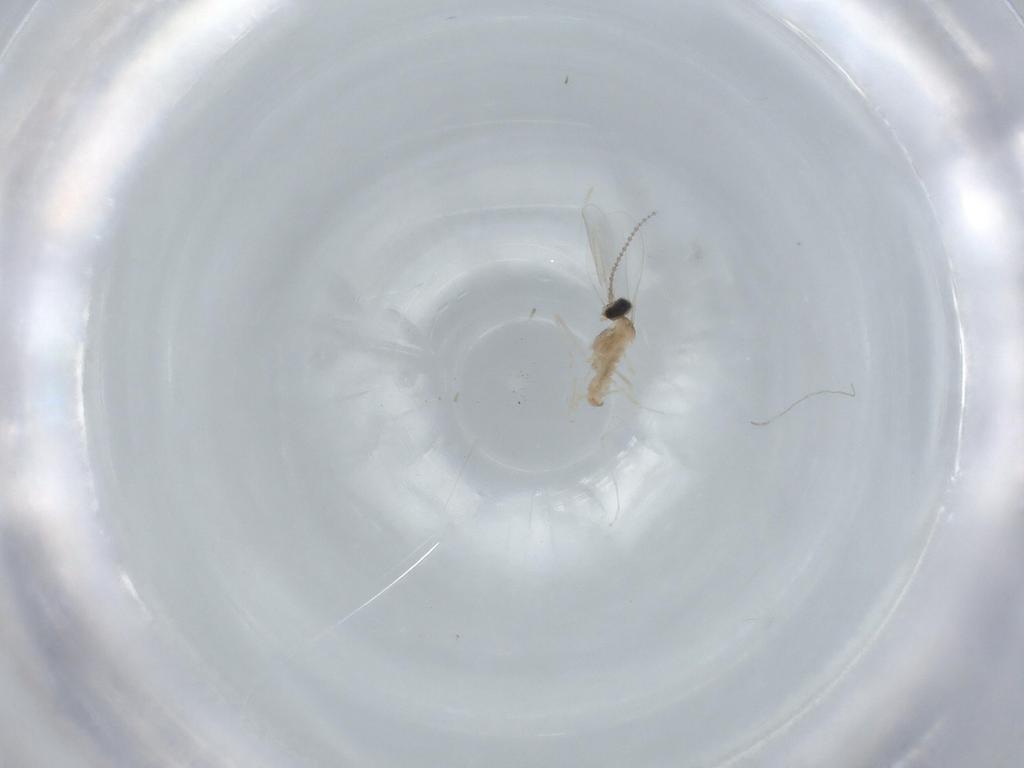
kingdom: Animalia
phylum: Arthropoda
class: Insecta
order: Diptera
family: Cecidomyiidae
